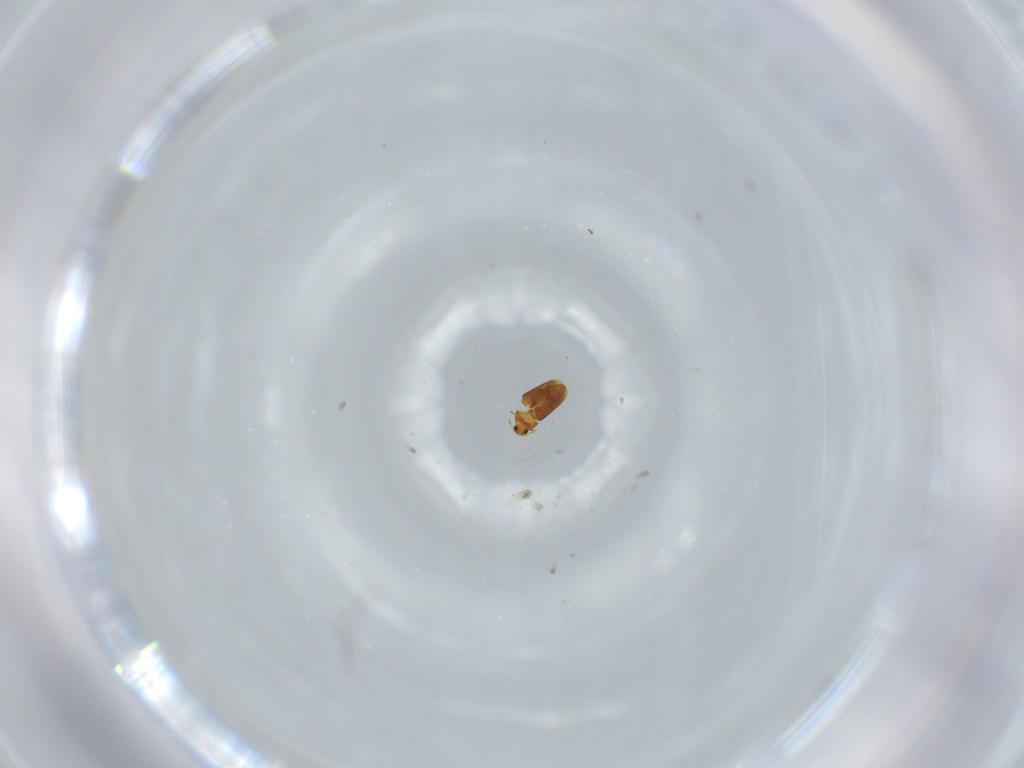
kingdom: Animalia
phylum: Arthropoda
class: Insecta
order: Coleoptera
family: Ptiliidae
